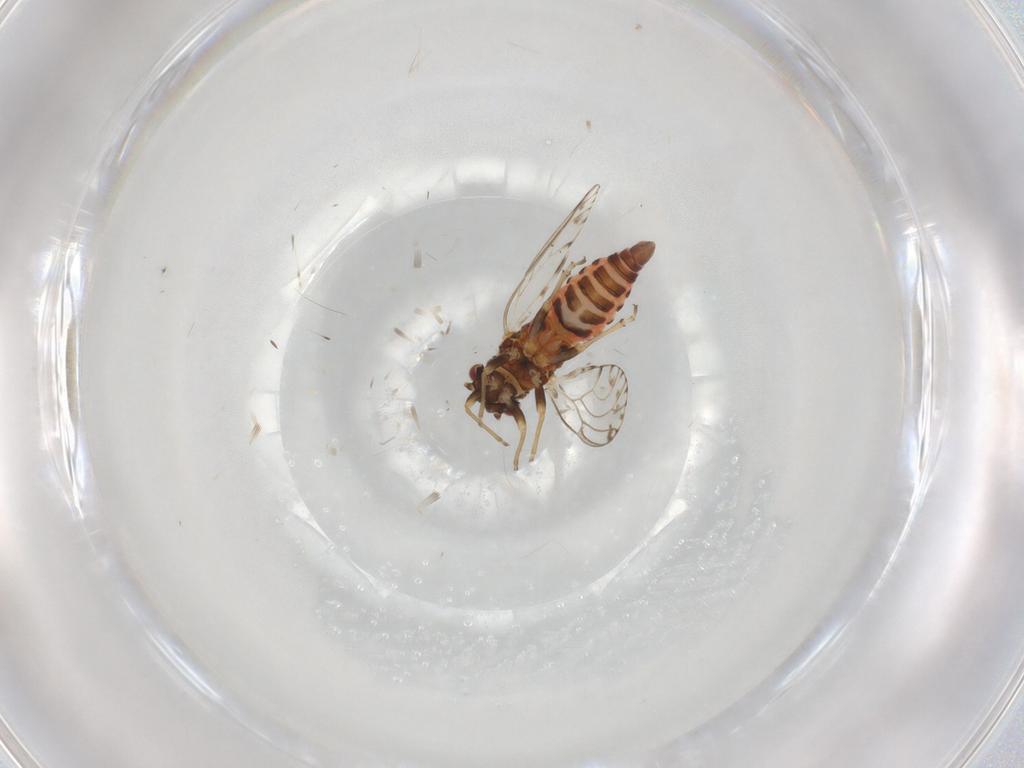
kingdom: Animalia
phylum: Arthropoda
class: Insecta
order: Hemiptera
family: Psyllidae
